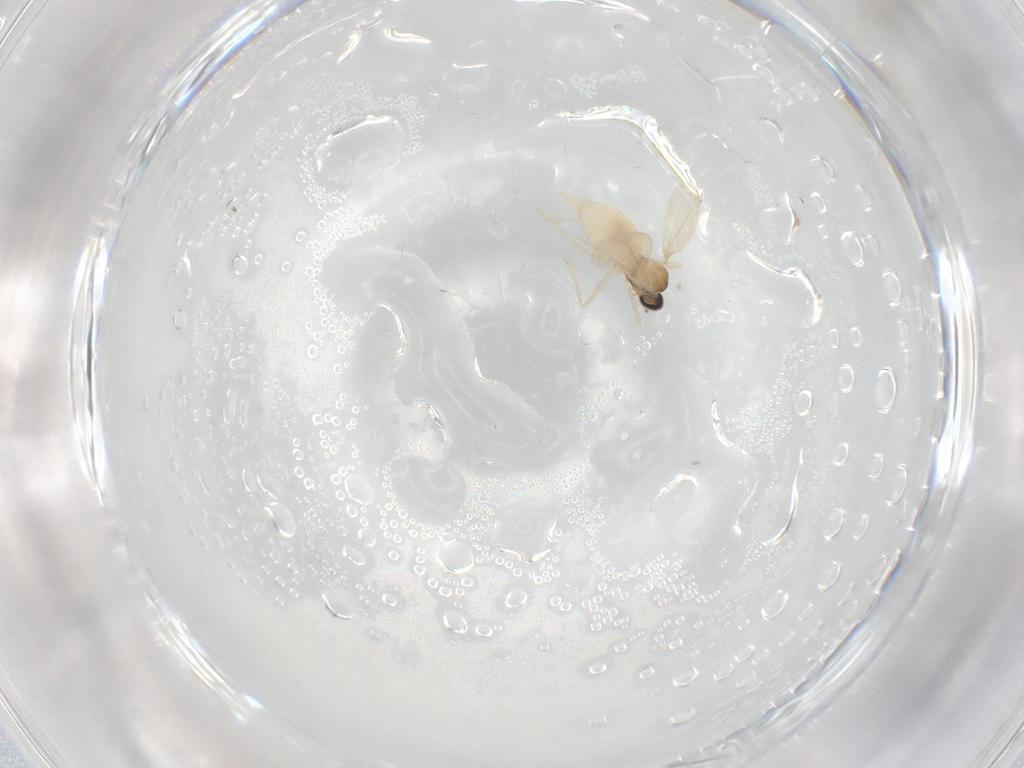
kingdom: Animalia
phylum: Arthropoda
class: Insecta
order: Diptera
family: Cecidomyiidae
